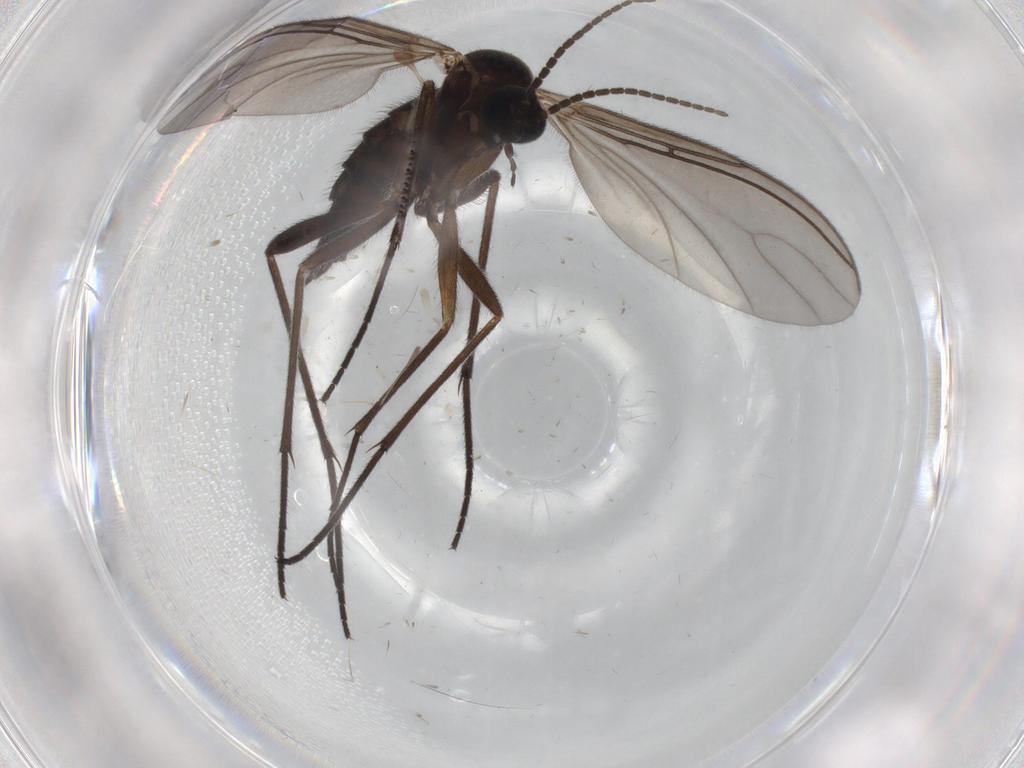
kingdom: Animalia
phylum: Arthropoda
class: Insecta
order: Diptera
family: Sciaridae
